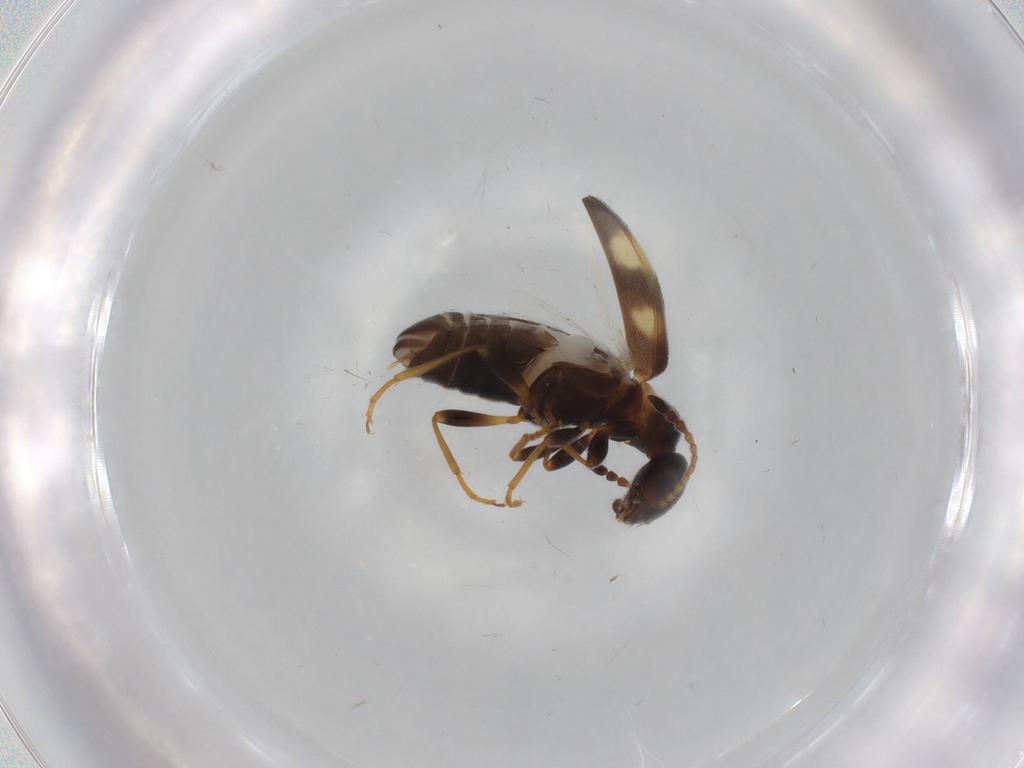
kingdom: Animalia
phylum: Arthropoda
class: Insecta
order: Coleoptera
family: Anthicidae
